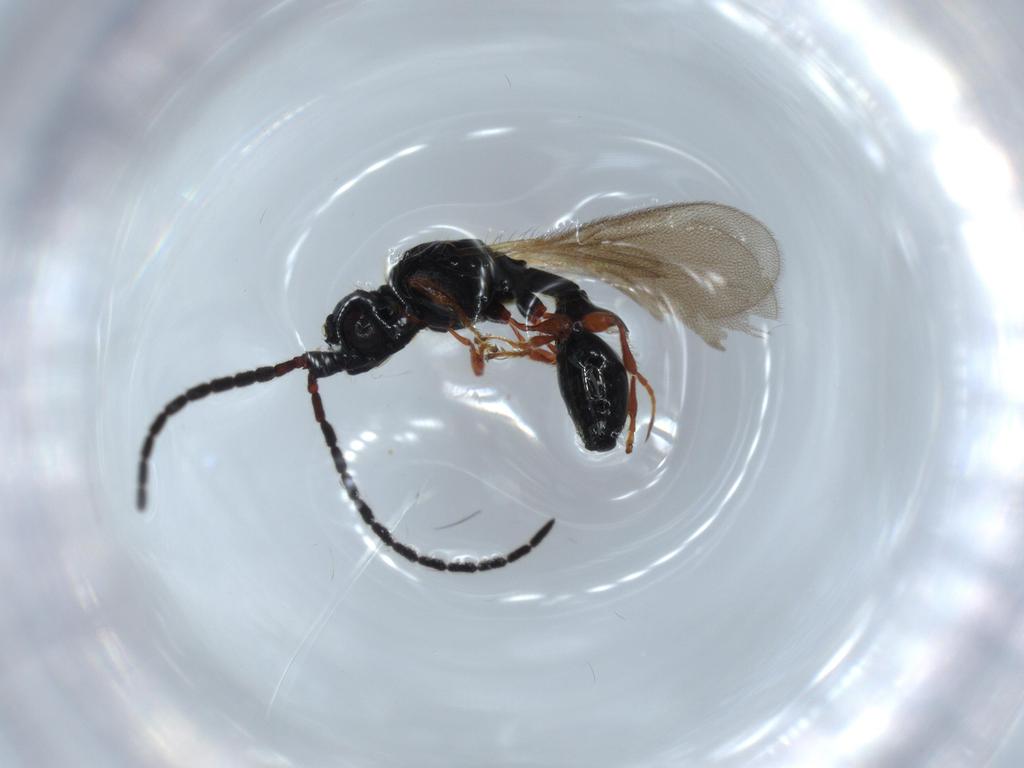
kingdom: Animalia
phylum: Arthropoda
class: Insecta
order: Hymenoptera
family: Diapriidae
